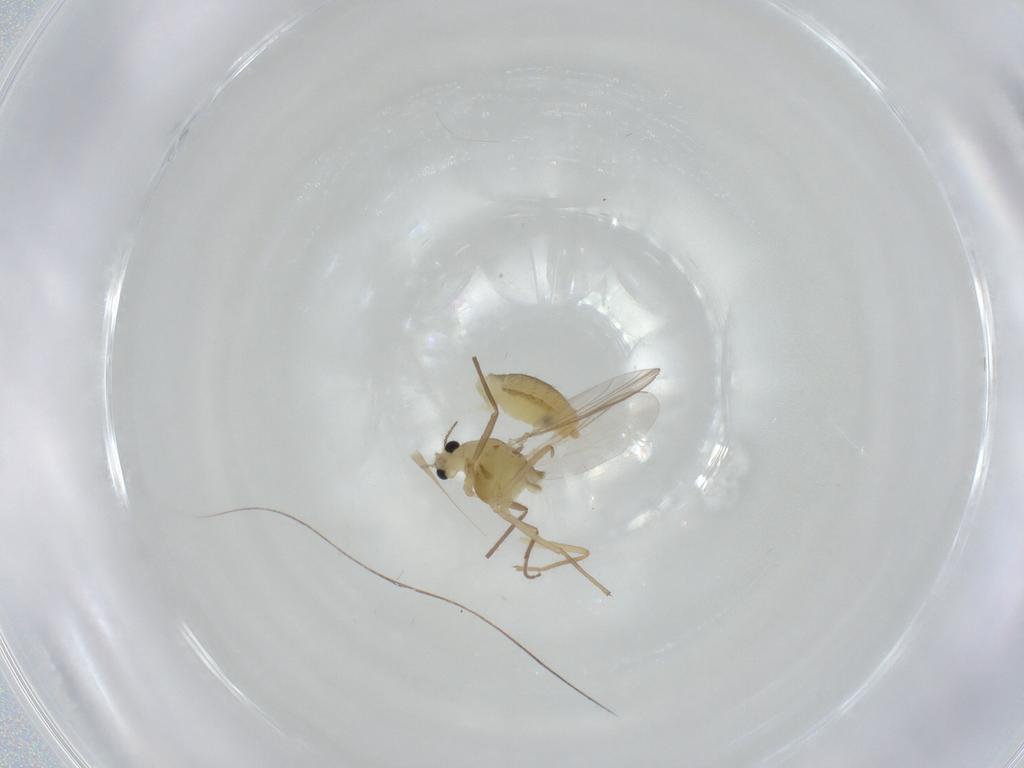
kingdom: Animalia
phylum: Arthropoda
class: Insecta
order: Diptera
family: Chironomidae
